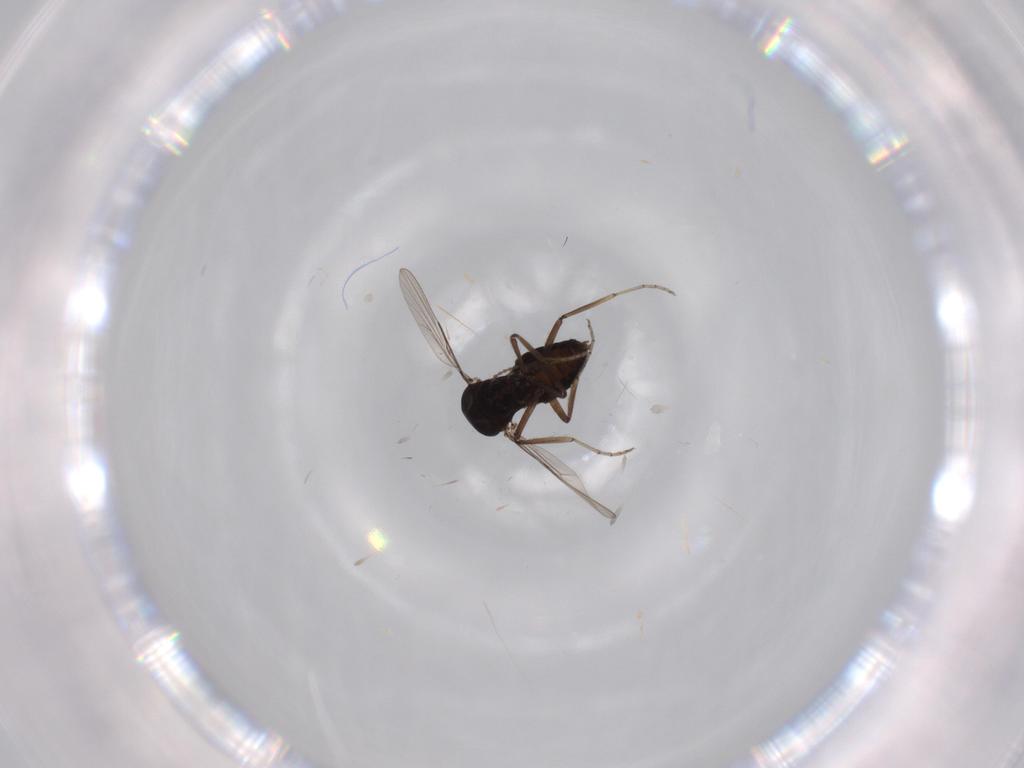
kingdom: Animalia
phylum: Arthropoda
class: Insecta
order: Diptera
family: Ceratopogonidae
